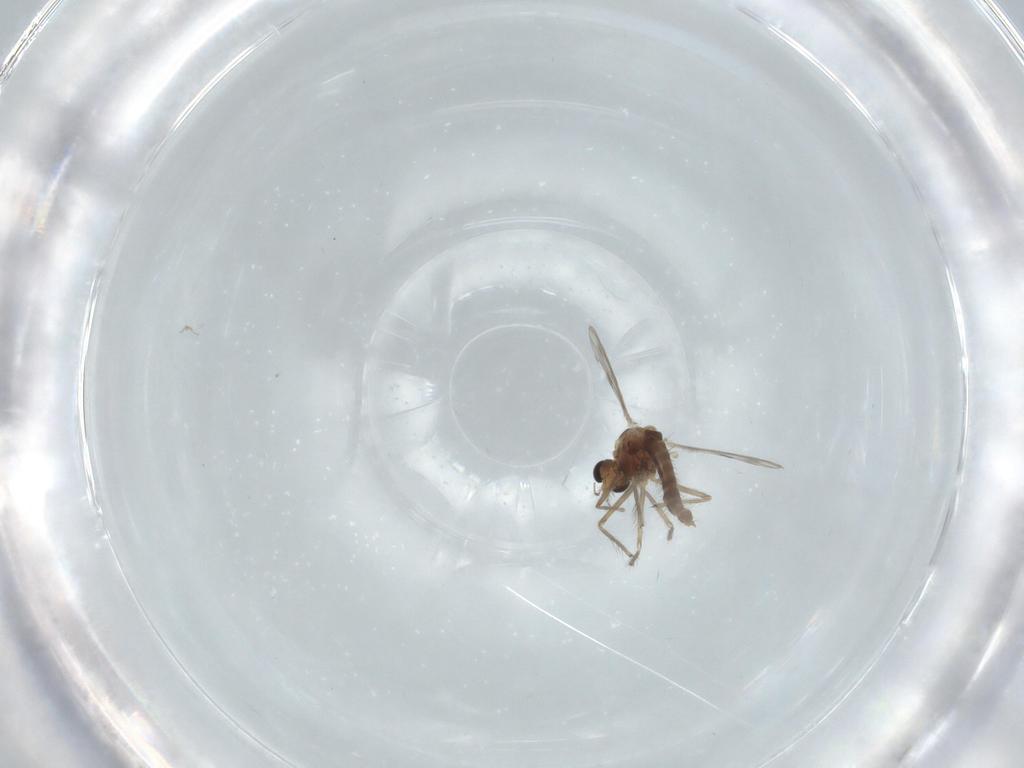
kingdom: Animalia
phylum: Arthropoda
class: Insecta
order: Diptera
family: Chironomidae
